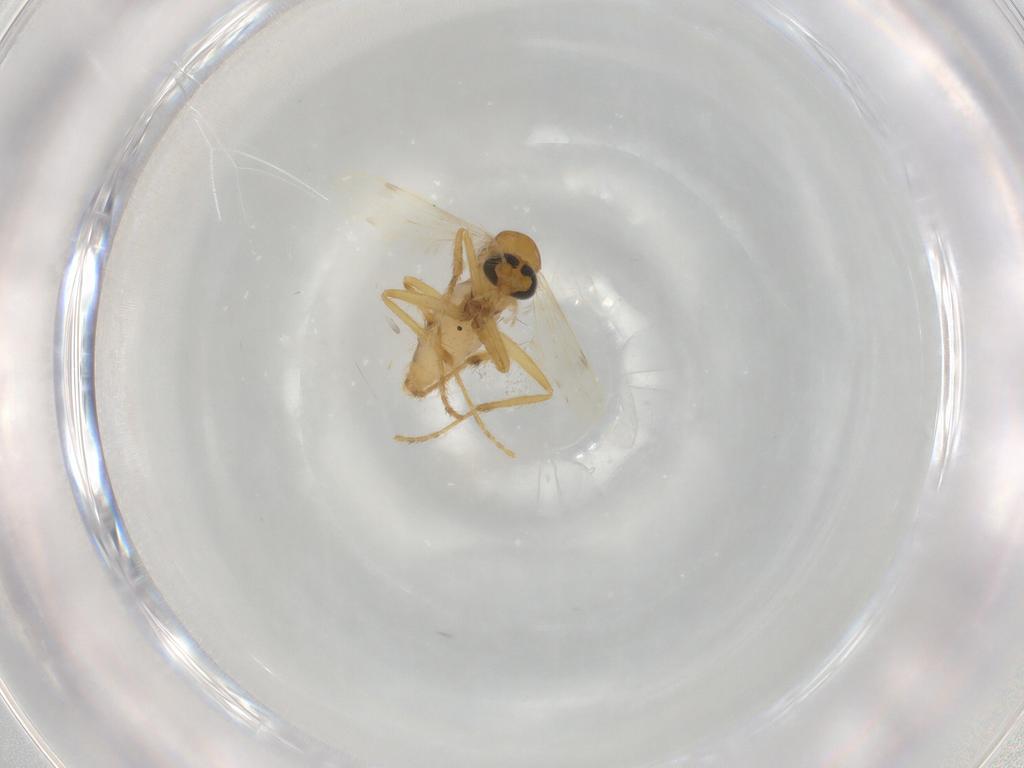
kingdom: Animalia
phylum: Arthropoda
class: Insecta
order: Diptera
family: Corethrellidae
